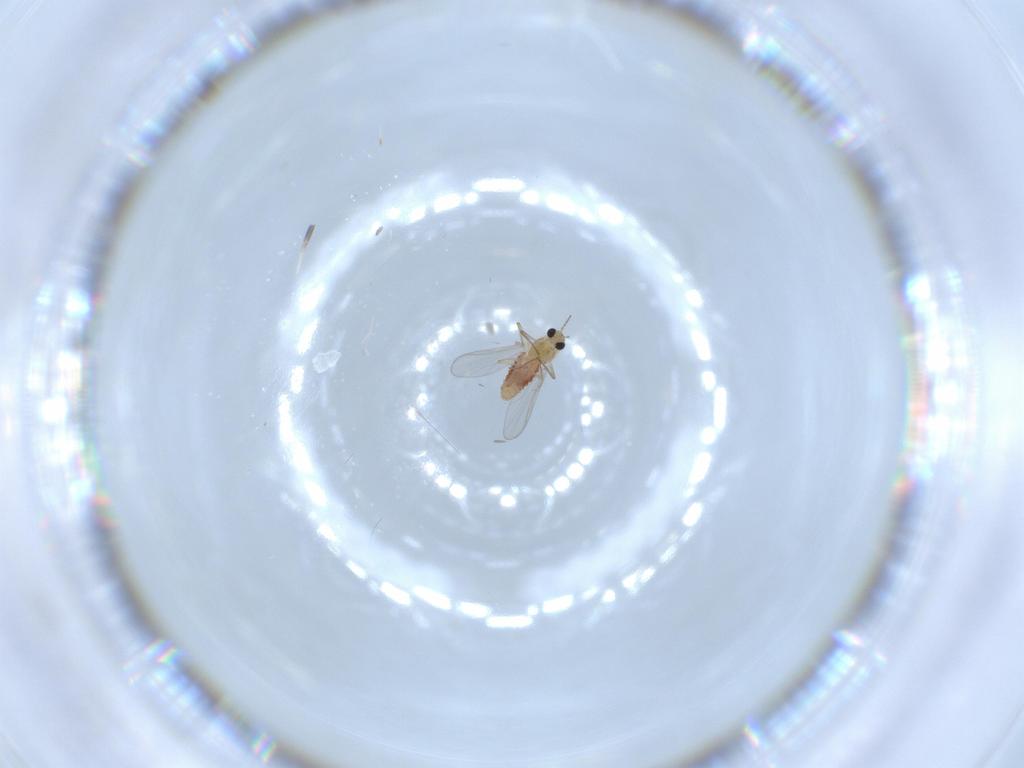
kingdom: Animalia
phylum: Arthropoda
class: Insecta
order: Diptera
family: Chironomidae
